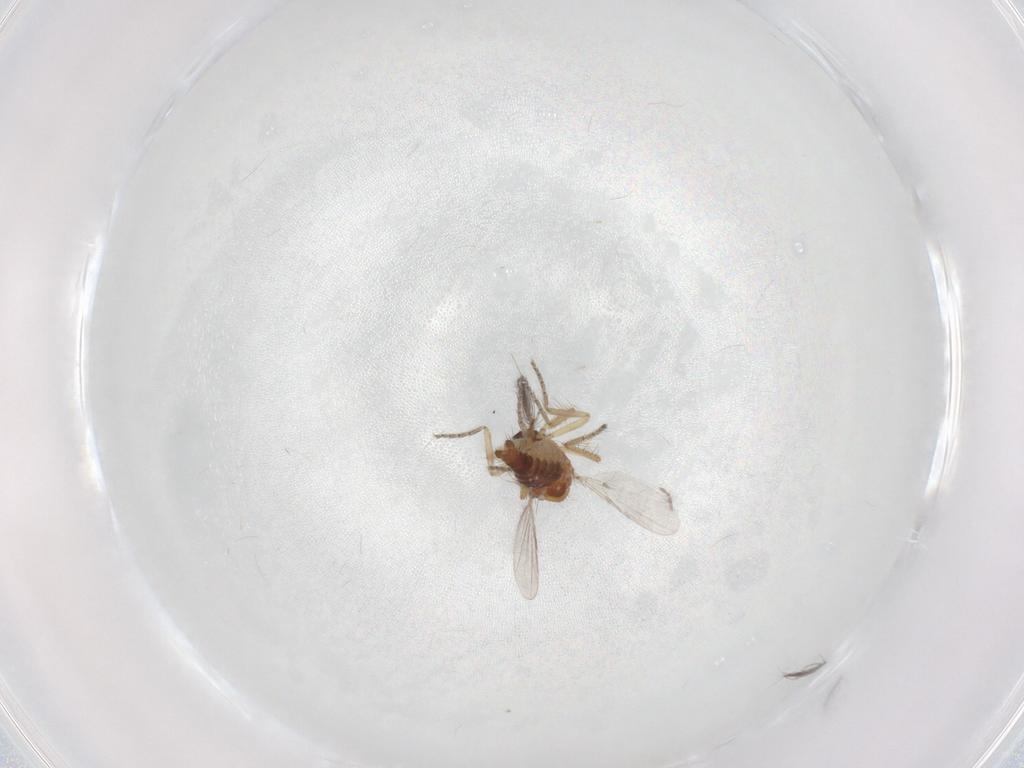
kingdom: Animalia
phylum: Arthropoda
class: Insecta
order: Diptera
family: Ceratopogonidae
